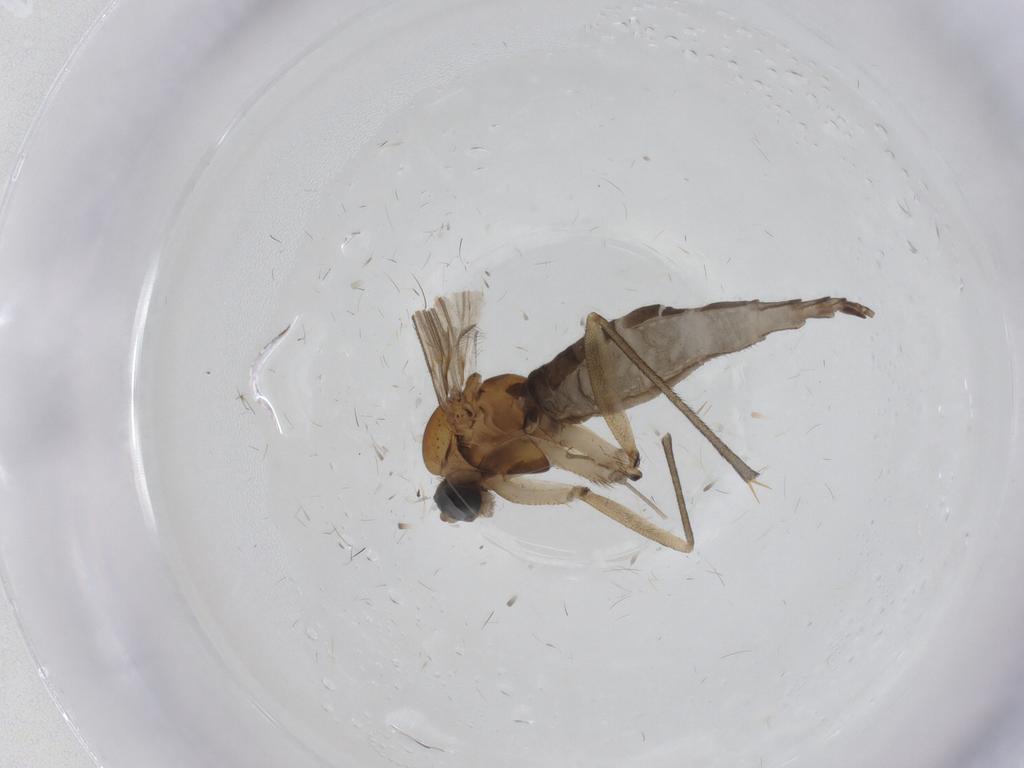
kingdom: Animalia
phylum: Arthropoda
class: Insecta
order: Diptera
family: Sciaridae
